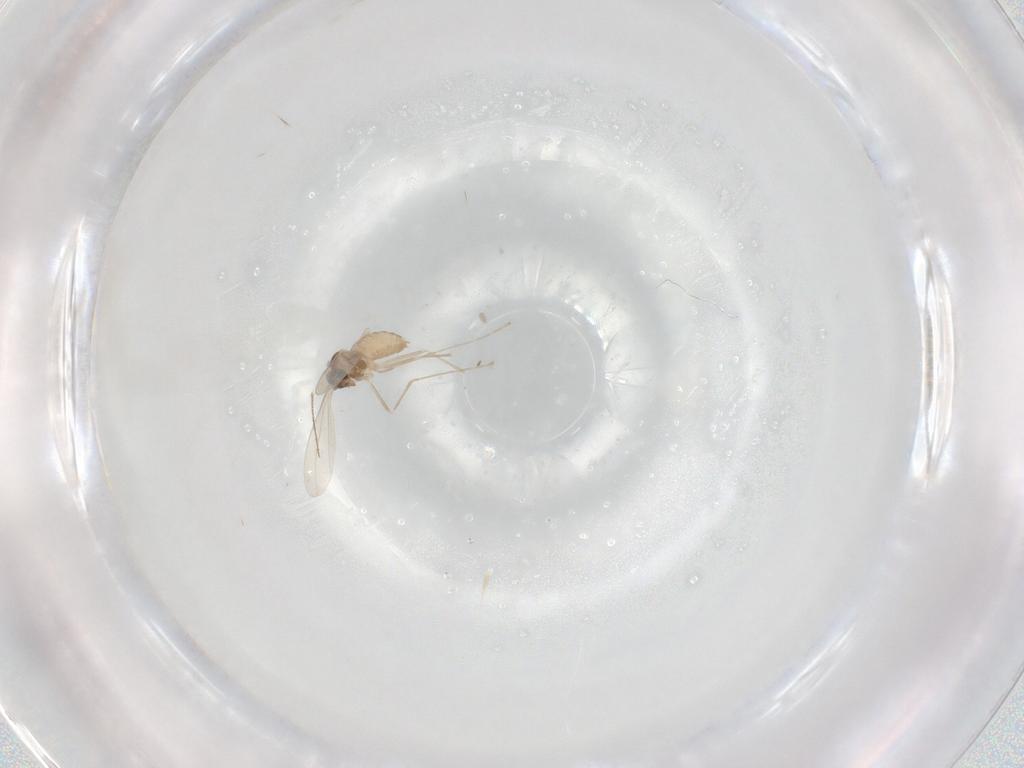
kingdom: Animalia
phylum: Arthropoda
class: Insecta
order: Diptera
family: Cecidomyiidae
